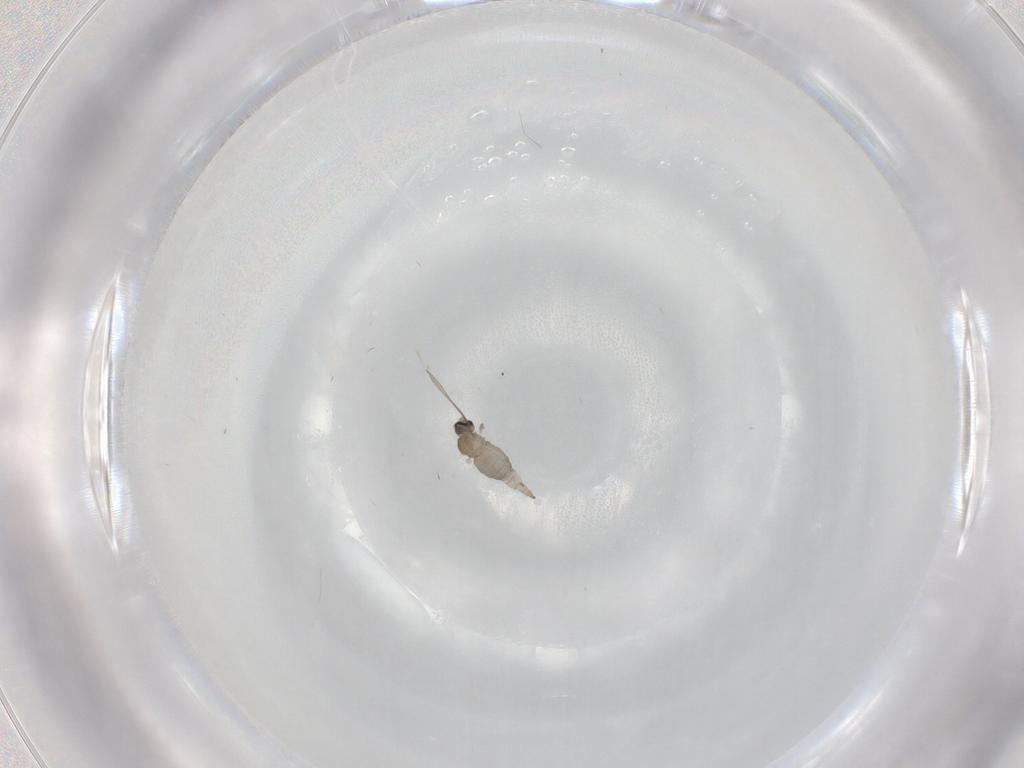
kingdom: Animalia
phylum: Arthropoda
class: Insecta
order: Diptera
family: Cecidomyiidae
